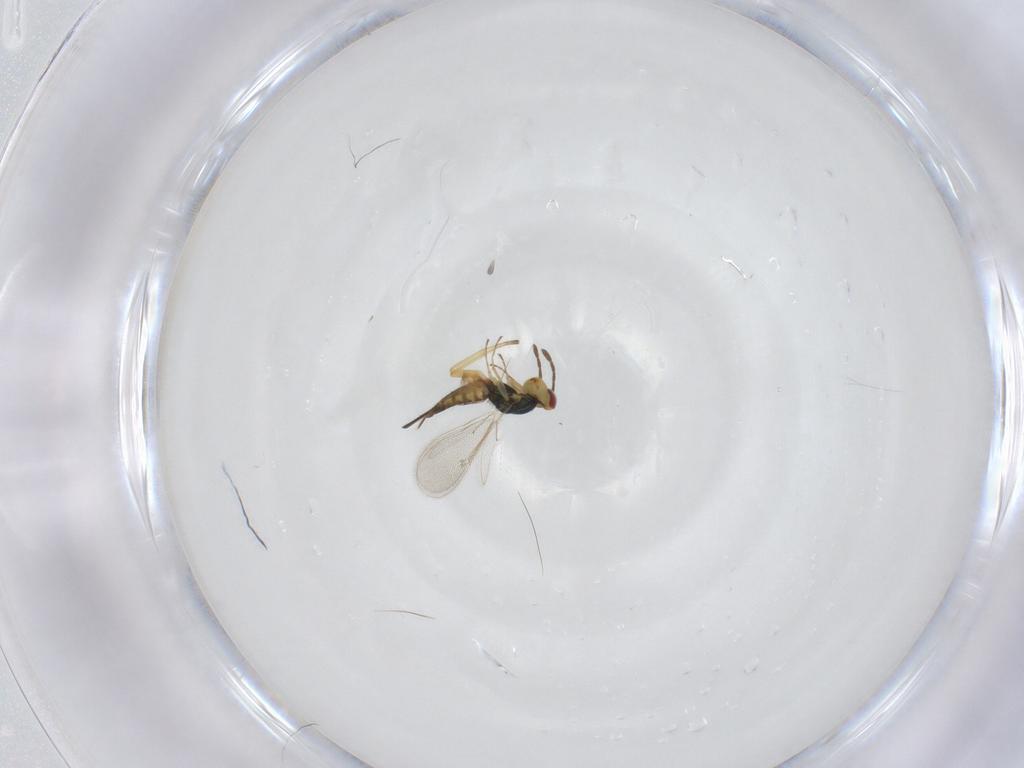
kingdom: Animalia
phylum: Arthropoda
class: Insecta
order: Hymenoptera
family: Eulophidae
